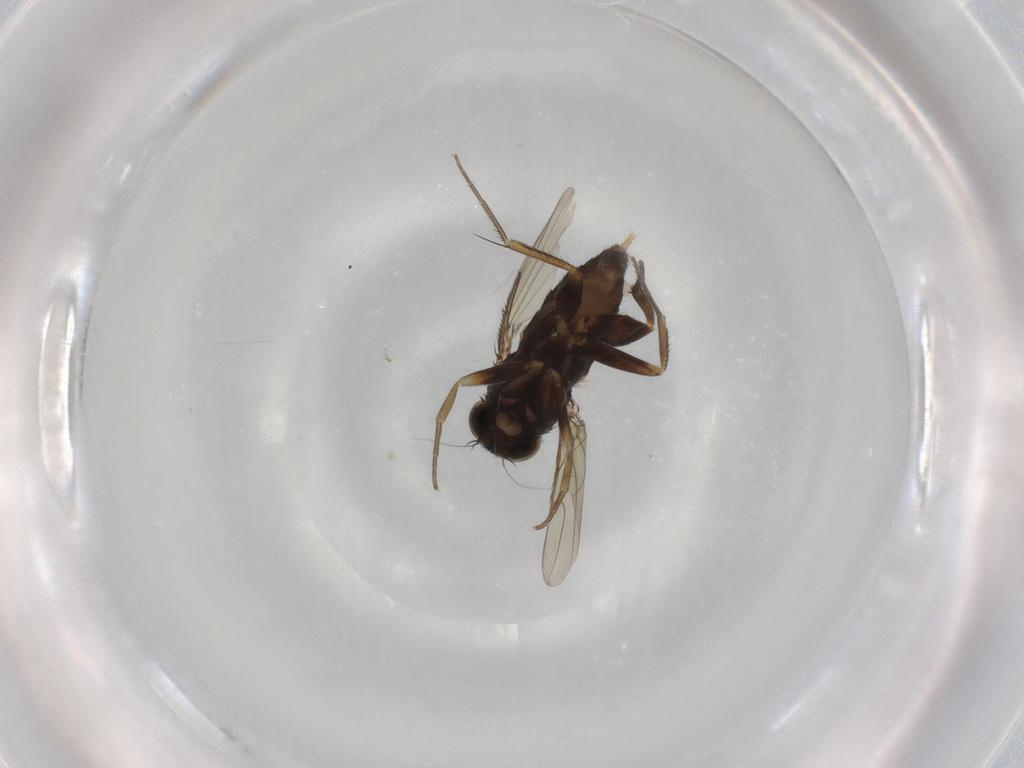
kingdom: Animalia
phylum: Arthropoda
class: Insecta
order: Diptera
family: Phoridae
